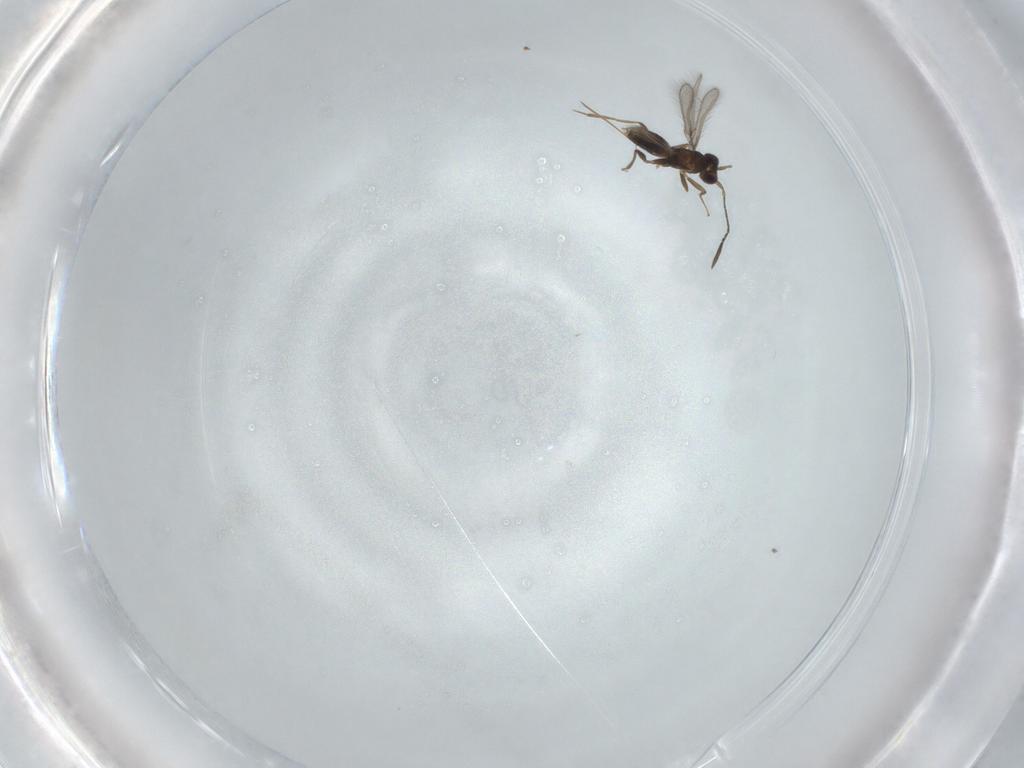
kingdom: Animalia
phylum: Arthropoda
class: Insecta
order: Hymenoptera
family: Mymaridae
